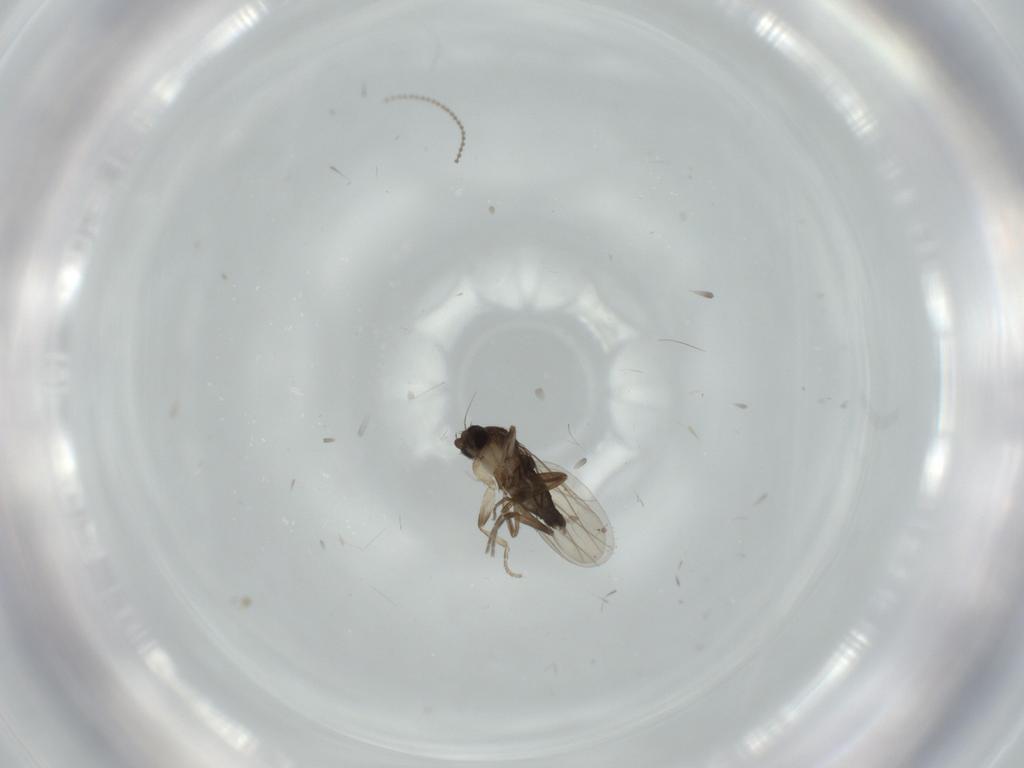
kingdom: Animalia
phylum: Arthropoda
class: Insecta
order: Diptera
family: Phoridae
